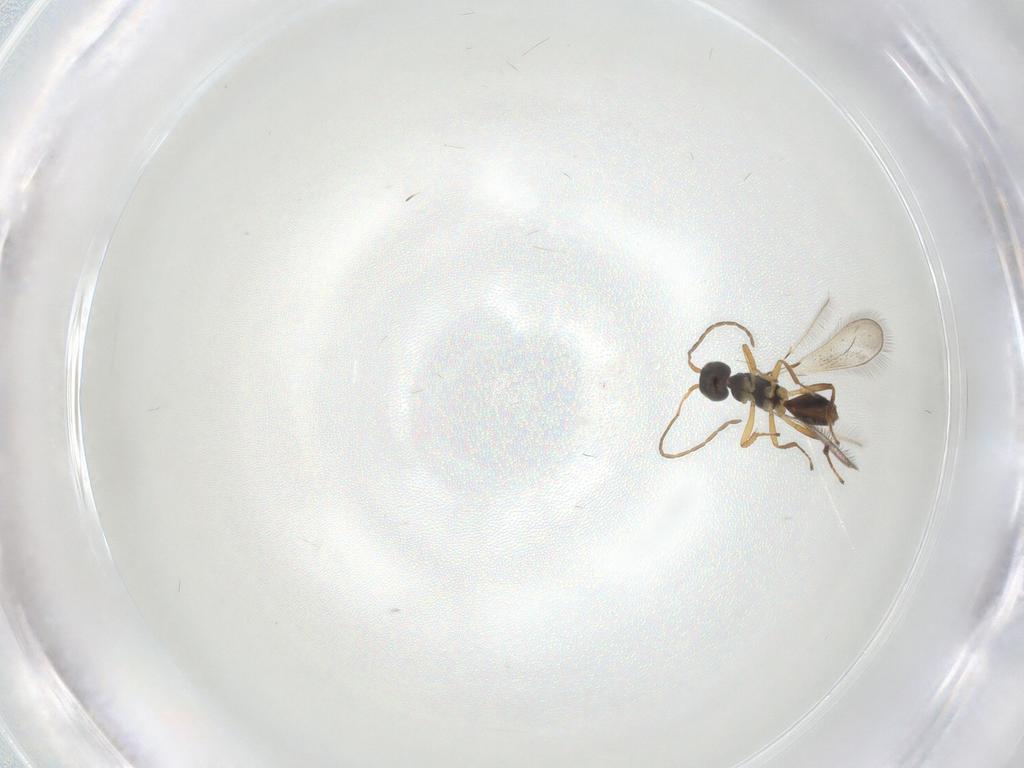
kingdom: Animalia
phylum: Arthropoda
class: Insecta
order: Hymenoptera
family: Mymaridae
